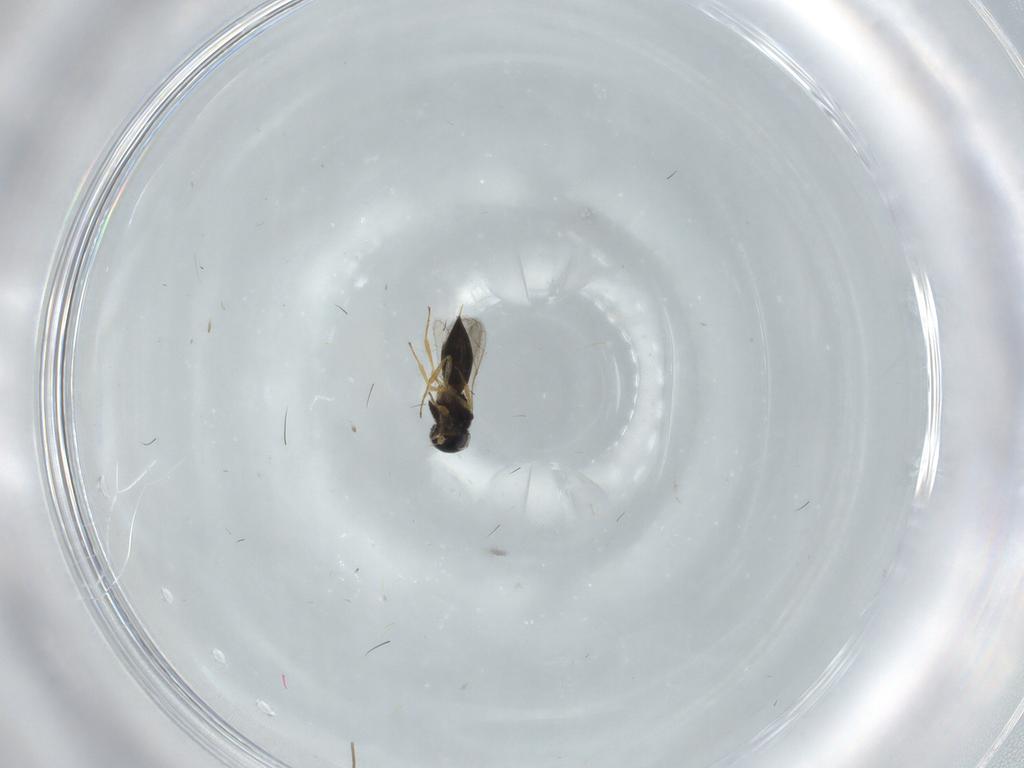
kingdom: Animalia
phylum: Arthropoda
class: Insecta
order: Hymenoptera
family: Scelionidae
